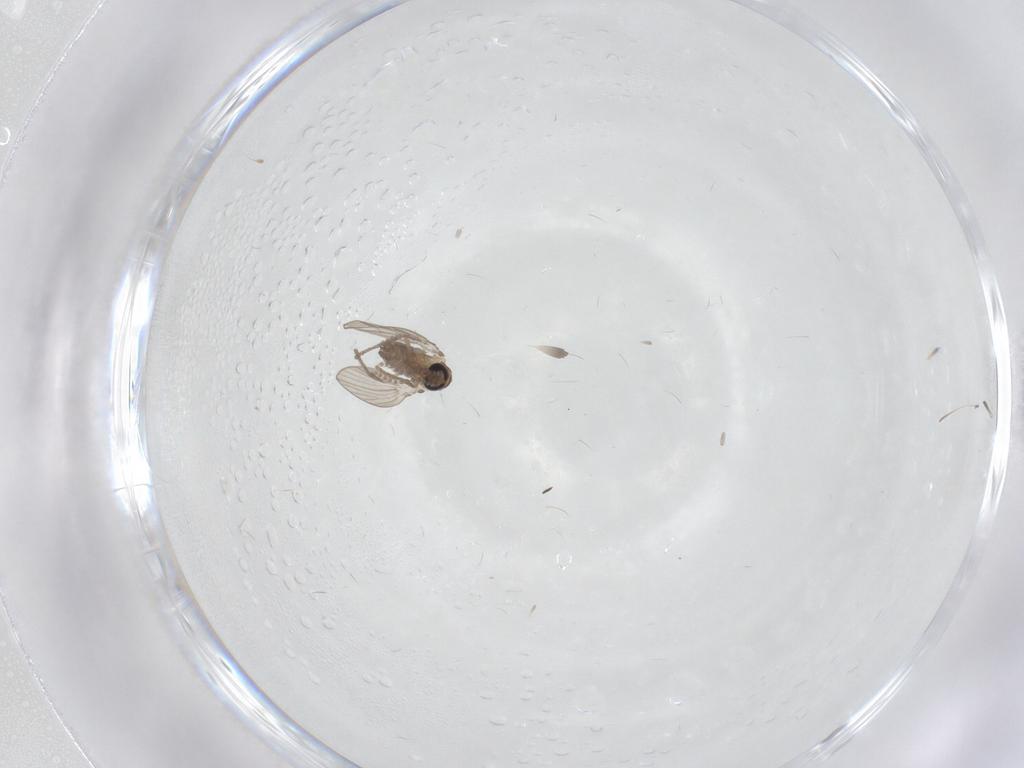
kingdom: Animalia
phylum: Arthropoda
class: Insecta
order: Diptera
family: Psychodidae
